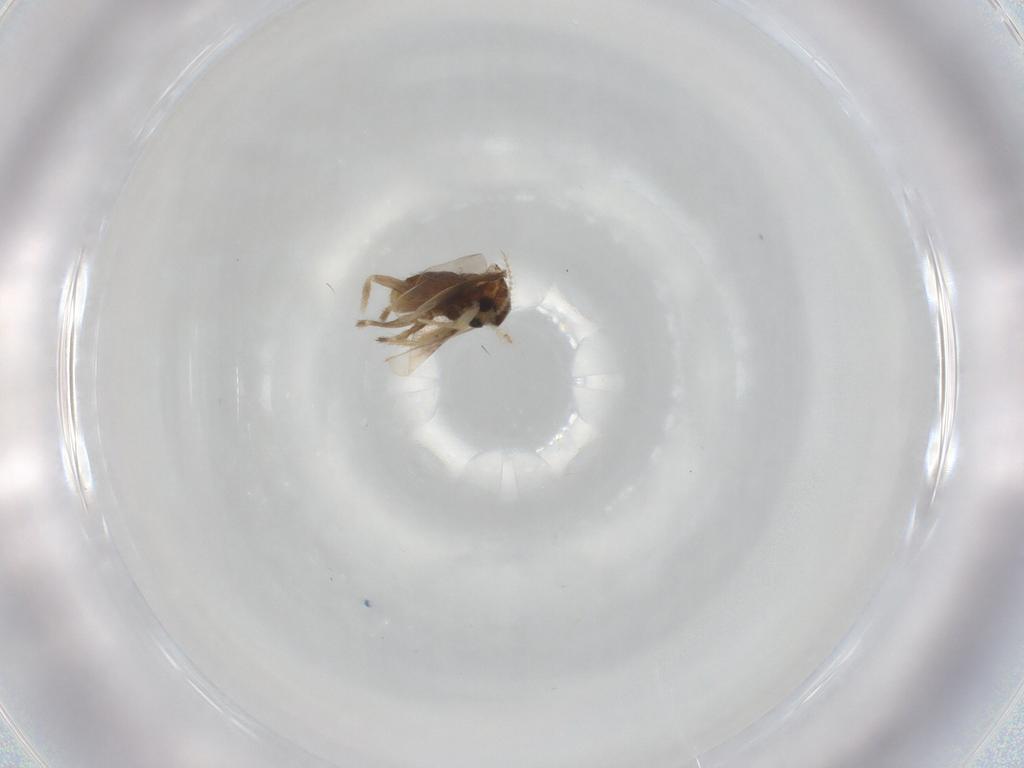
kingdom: Animalia
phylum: Arthropoda
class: Insecta
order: Diptera
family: Chironomidae
